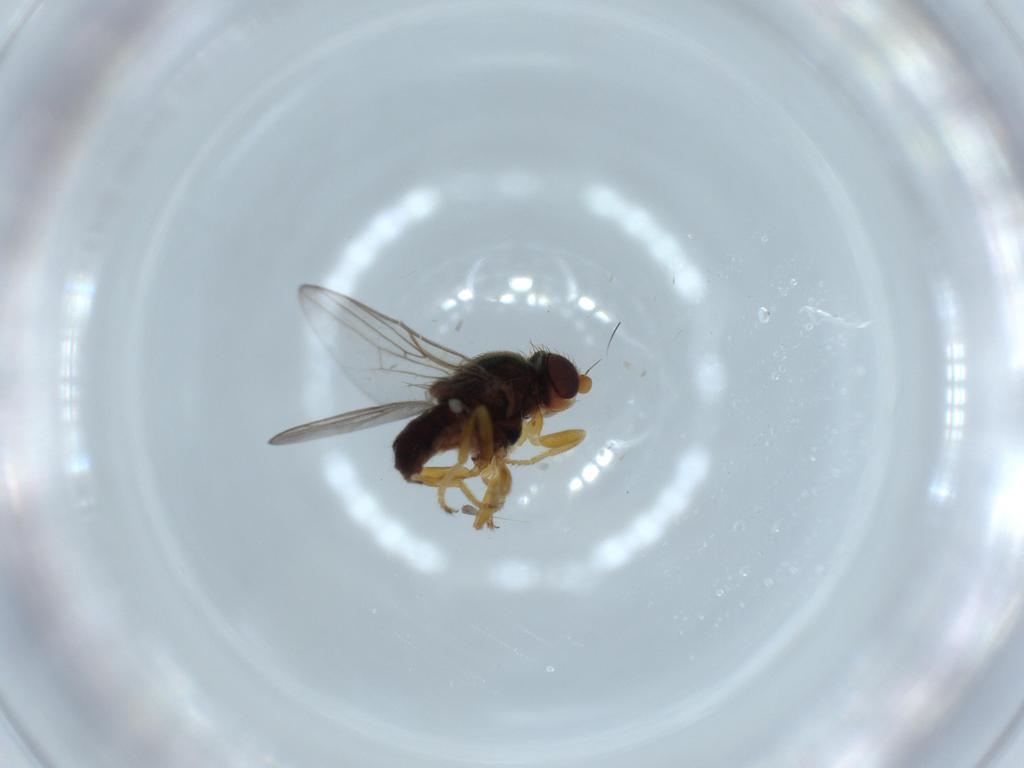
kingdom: Animalia
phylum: Arthropoda
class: Insecta
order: Diptera
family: Chloropidae
